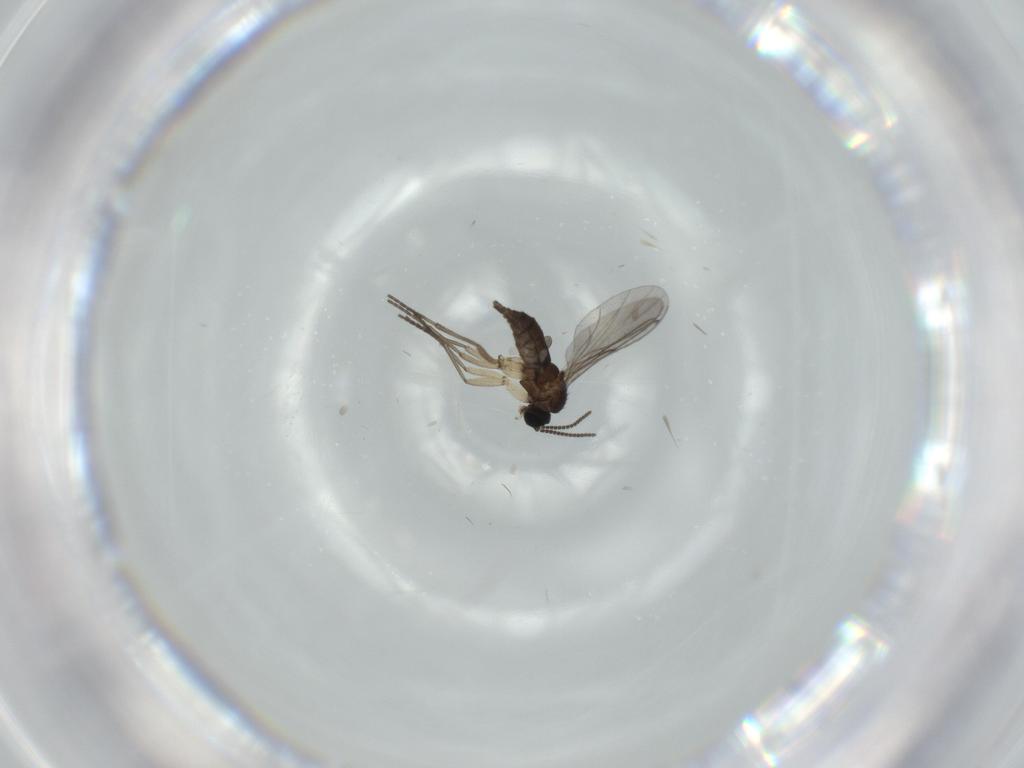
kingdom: Animalia
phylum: Arthropoda
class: Insecta
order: Diptera
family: Sciaridae
